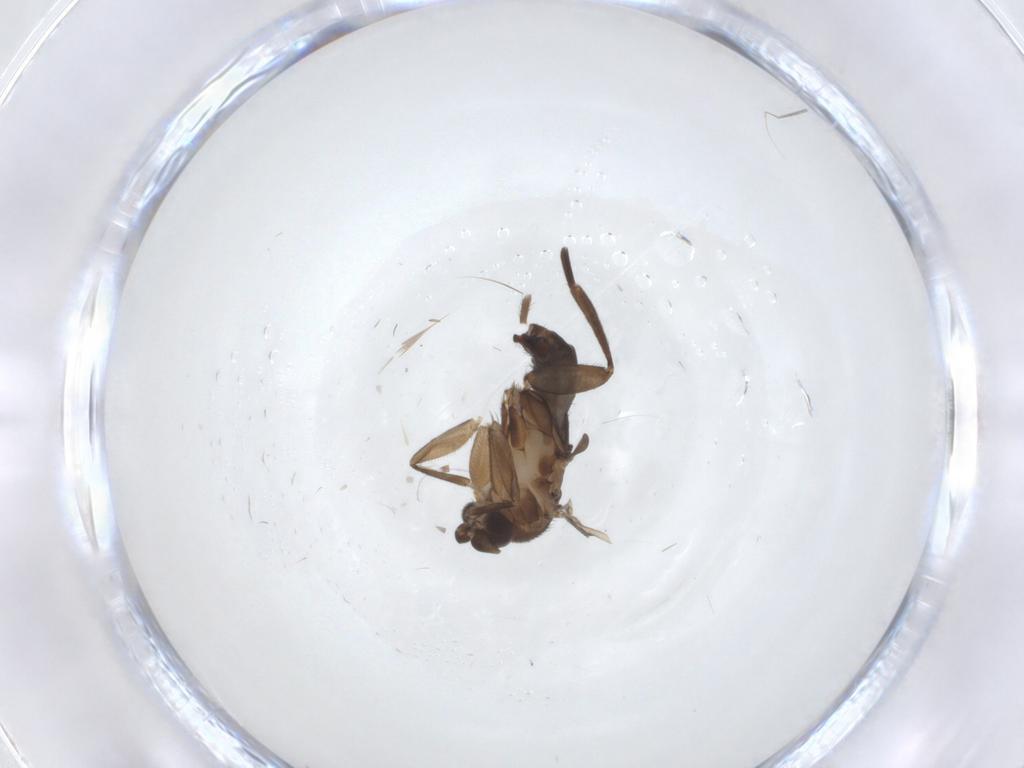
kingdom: Animalia
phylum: Arthropoda
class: Insecta
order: Diptera
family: Phoridae
